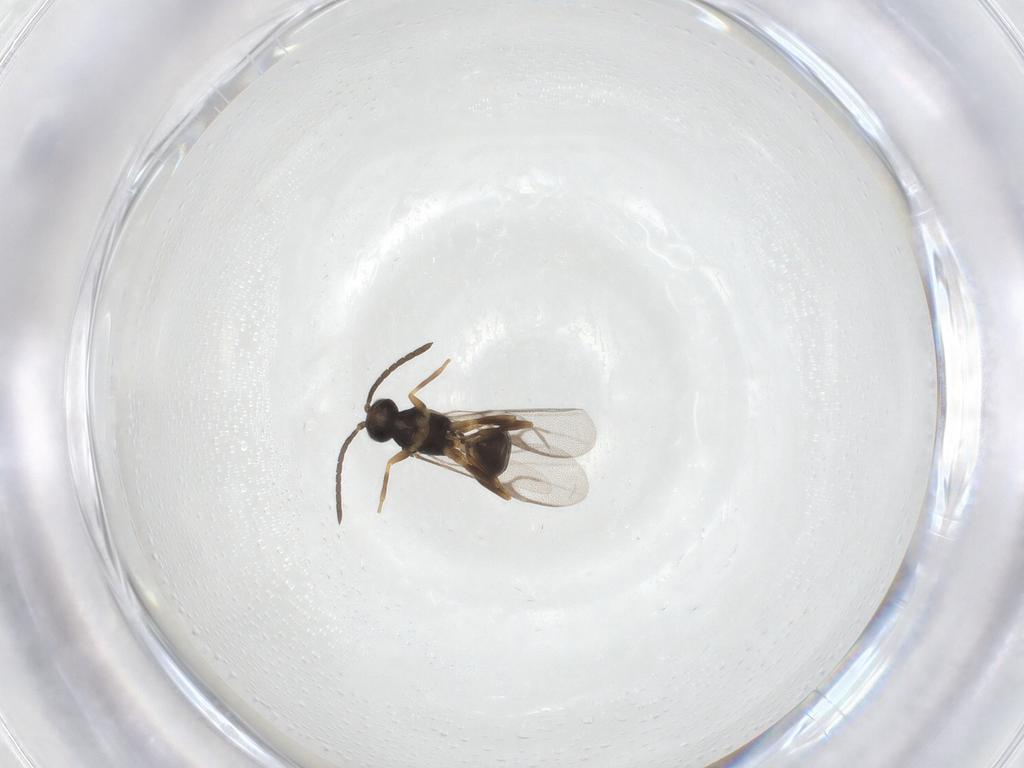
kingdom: Animalia
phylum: Arthropoda
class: Insecta
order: Hymenoptera
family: Braconidae
